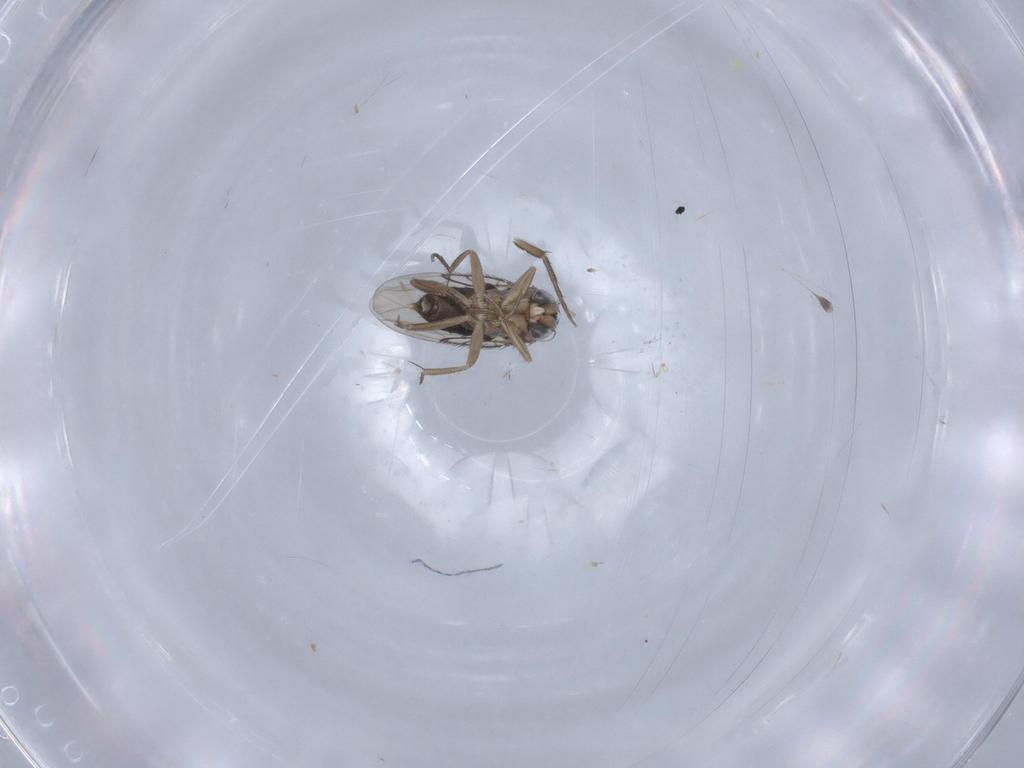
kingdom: Animalia
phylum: Arthropoda
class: Insecta
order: Diptera
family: Phoridae
